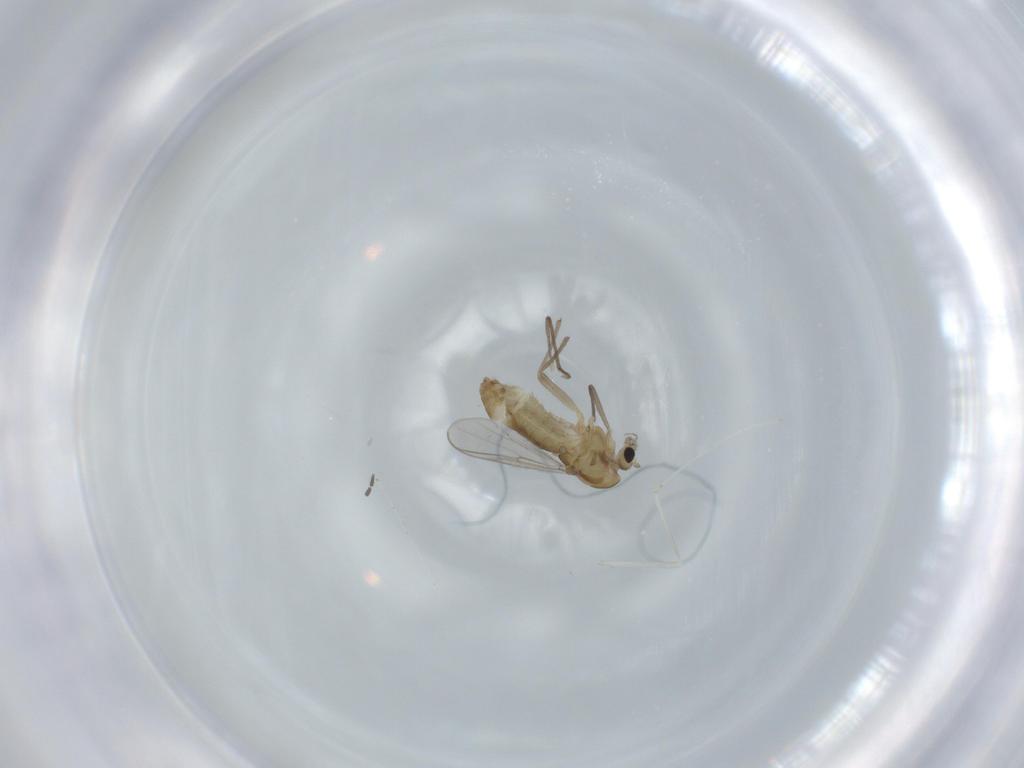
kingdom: Animalia
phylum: Arthropoda
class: Insecta
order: Diptera
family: Chironomidae
